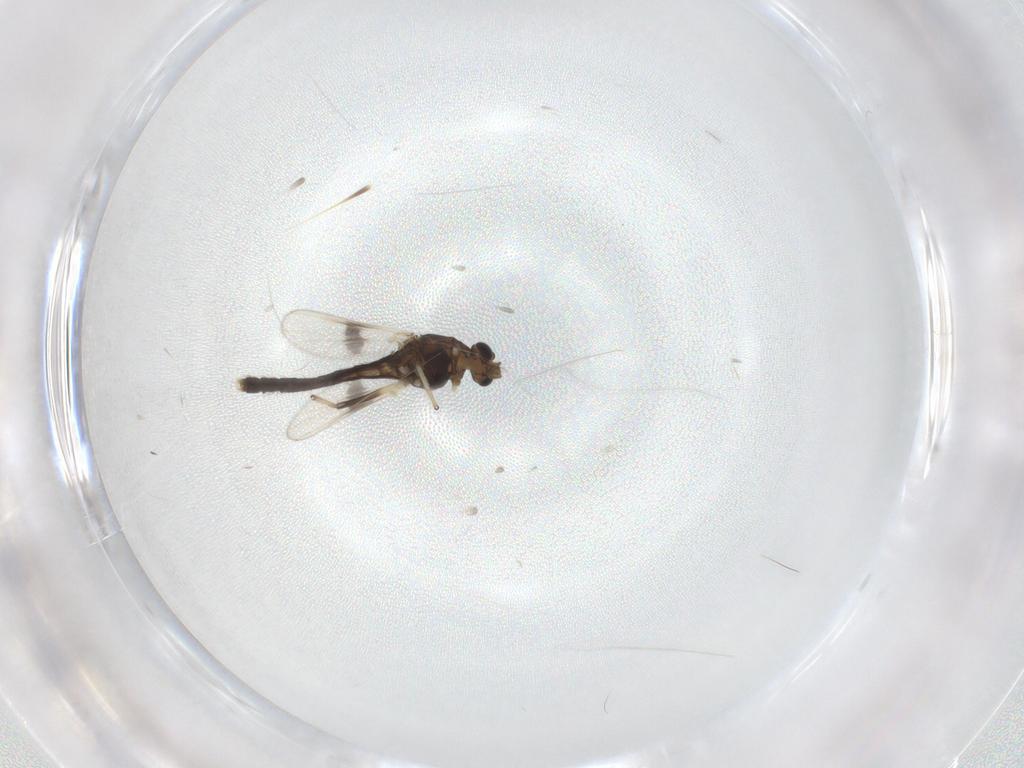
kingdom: Animalia
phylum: Arthropoda
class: Insecta
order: Diptera
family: Chironomidae
